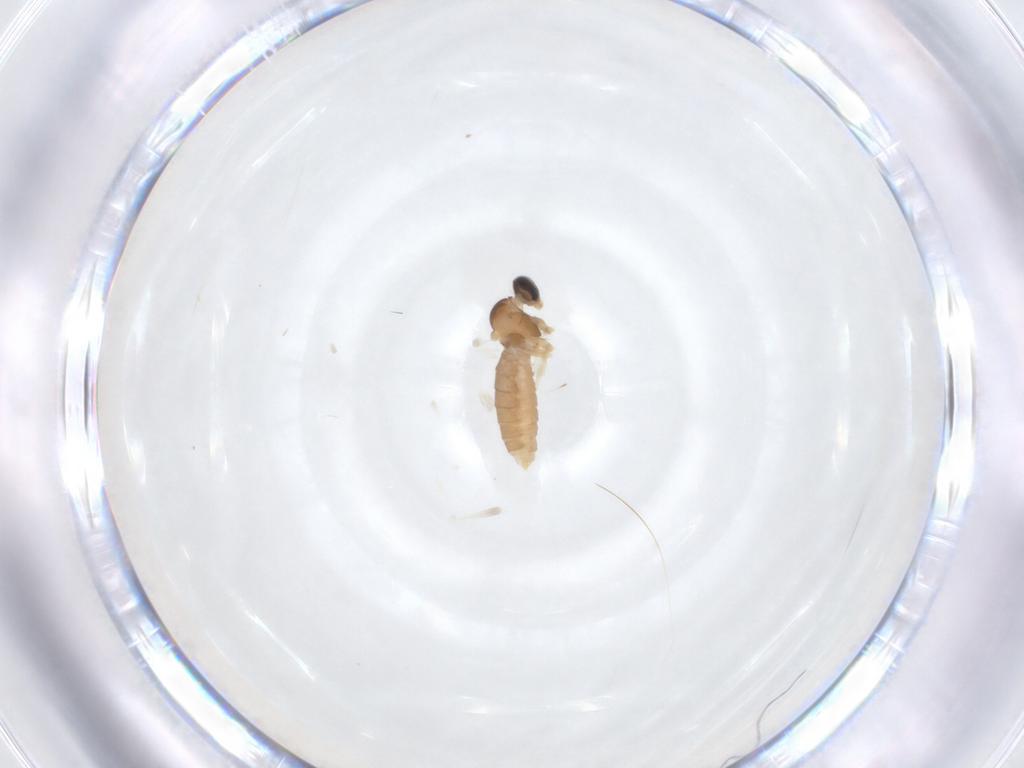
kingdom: Animalia
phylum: Arthropoda
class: Insecta
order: Diptera
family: Cecidomyiidae
